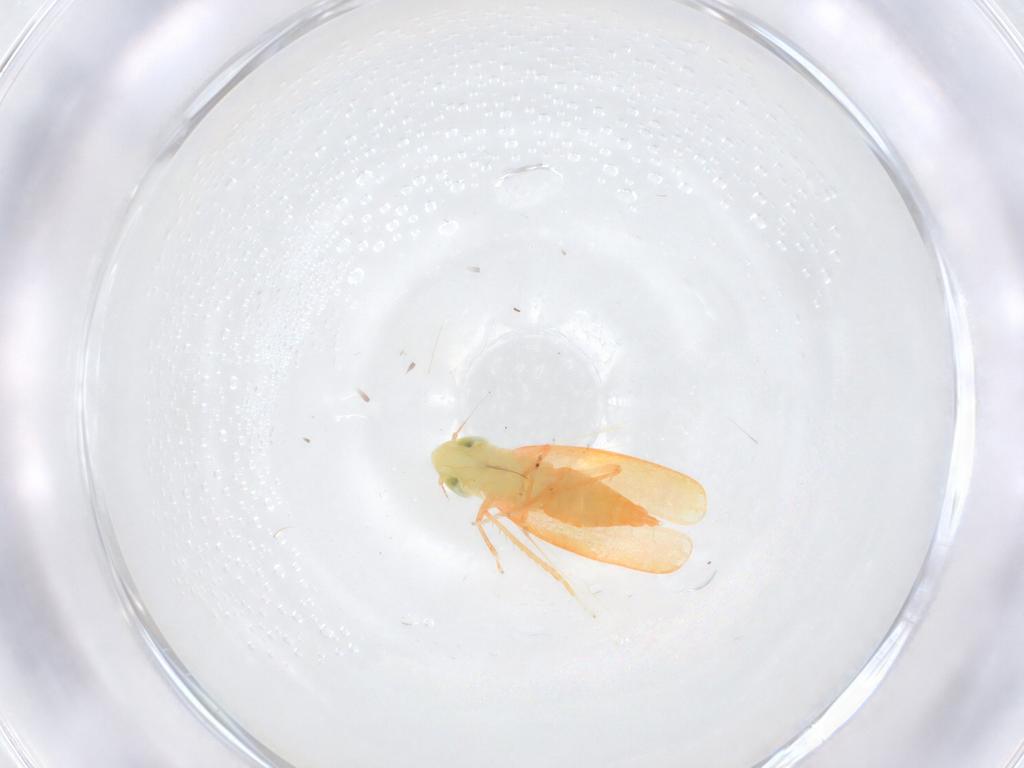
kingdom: Animalia
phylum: Arthropoda
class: Insecta
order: Hemiptera
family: Cicadellidae
